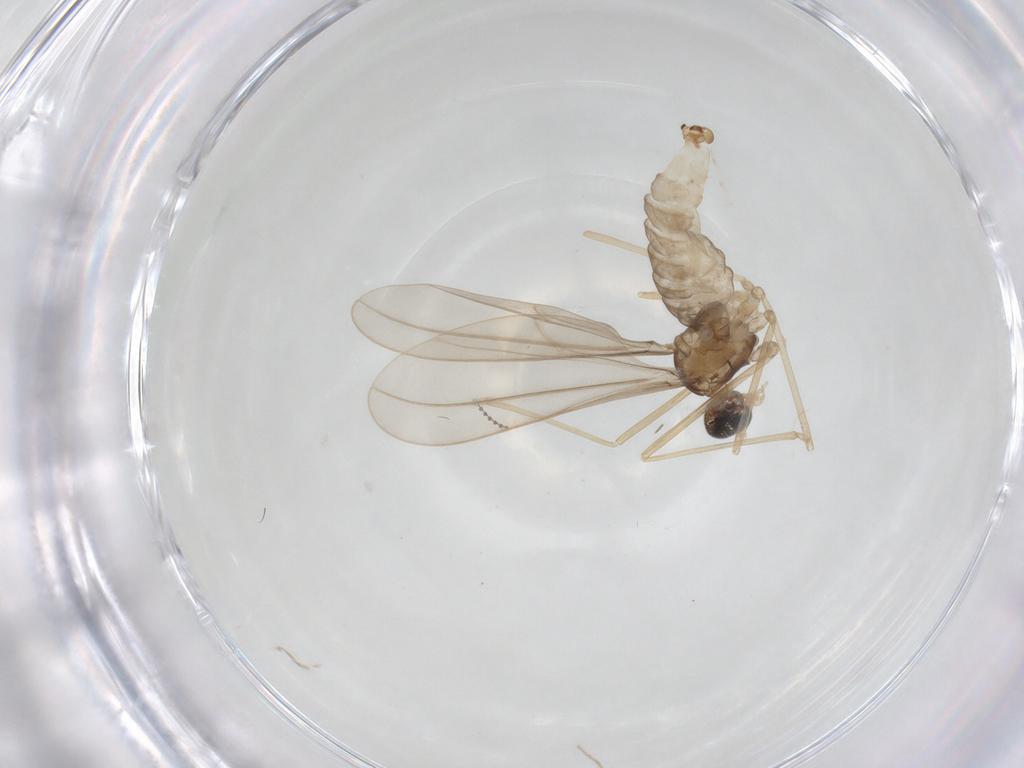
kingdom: Animalia
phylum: Arthropoda
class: Insecta
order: Diptera
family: Cecidomyiidae
